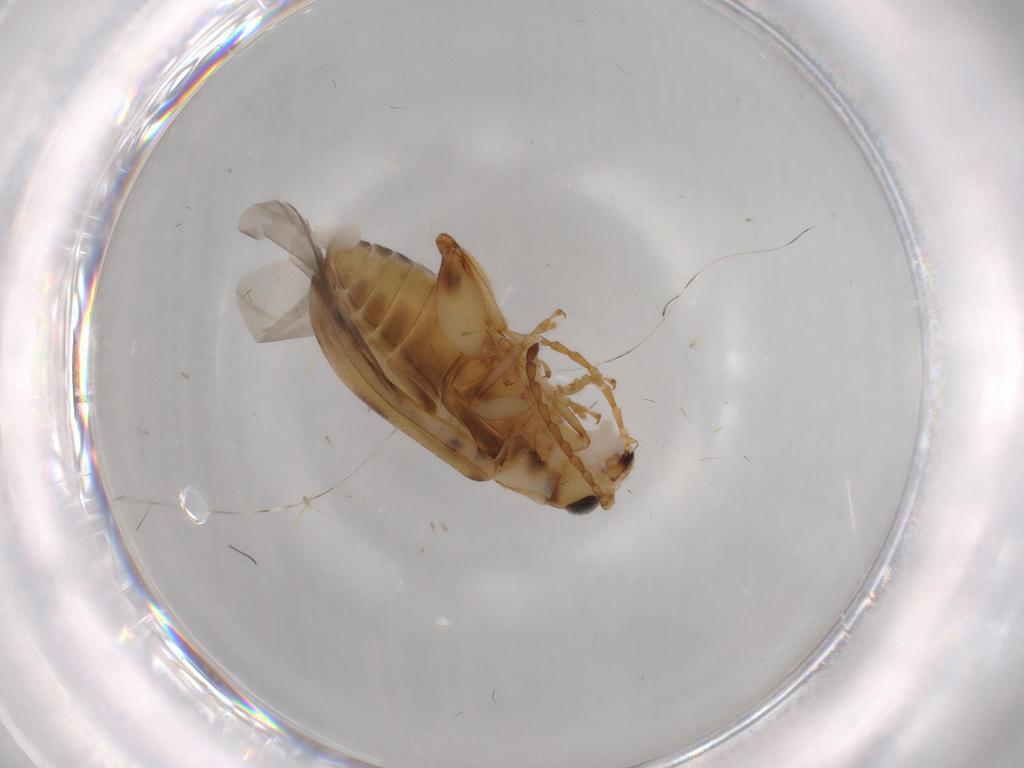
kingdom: Animalia
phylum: Arthropoda
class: Insecta
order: Coleoptera
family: Chrysomelidae
